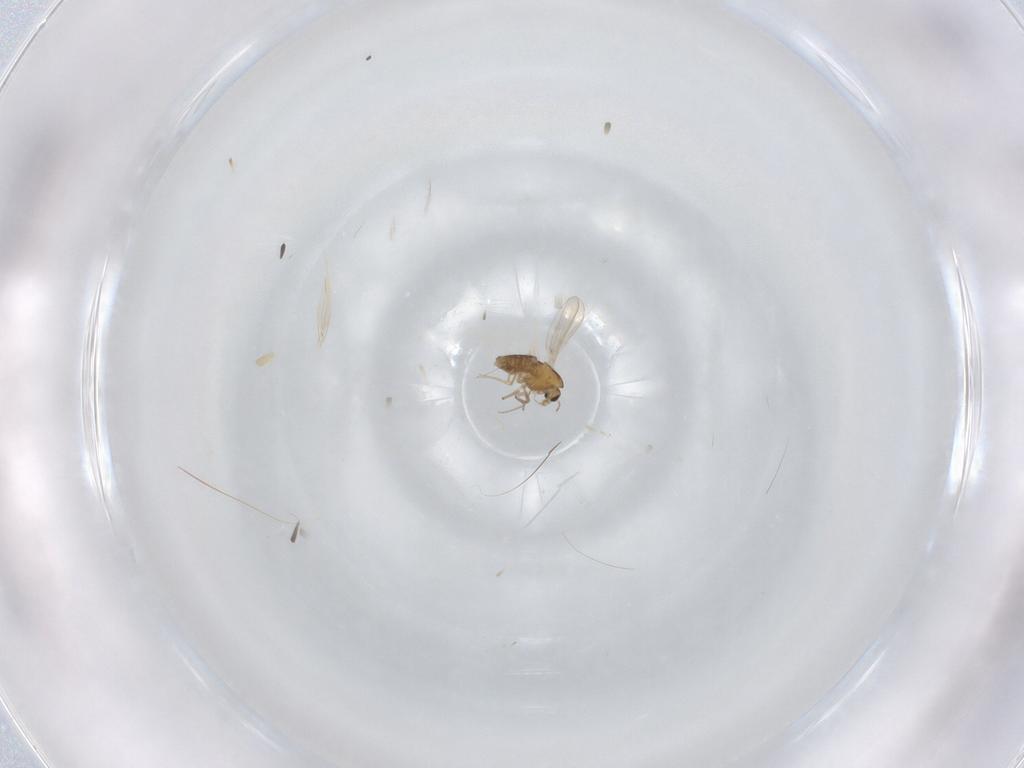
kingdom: Animalia
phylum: Arthropoda
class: Insecta
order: Diptera
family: Chironomidae
